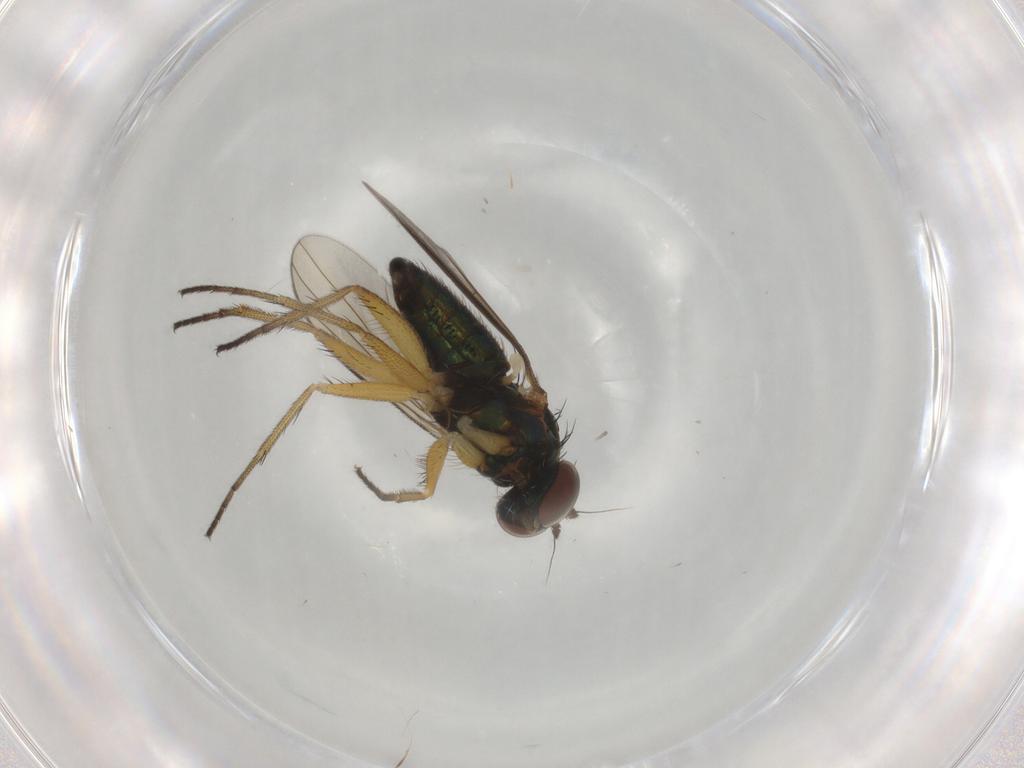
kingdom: Animalia
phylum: Arthropoda
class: Insecta
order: Diptera
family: Dolichopodidae
